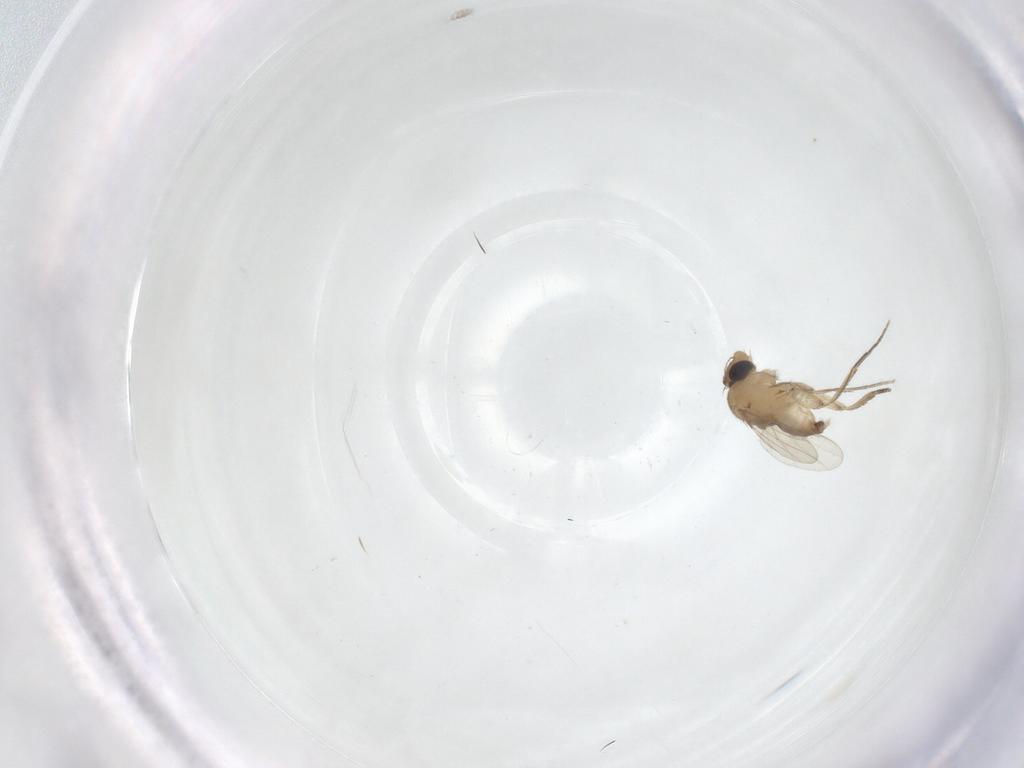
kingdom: Animalia
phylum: Arthropoda
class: Insecta
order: Diptera
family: Phoridae
